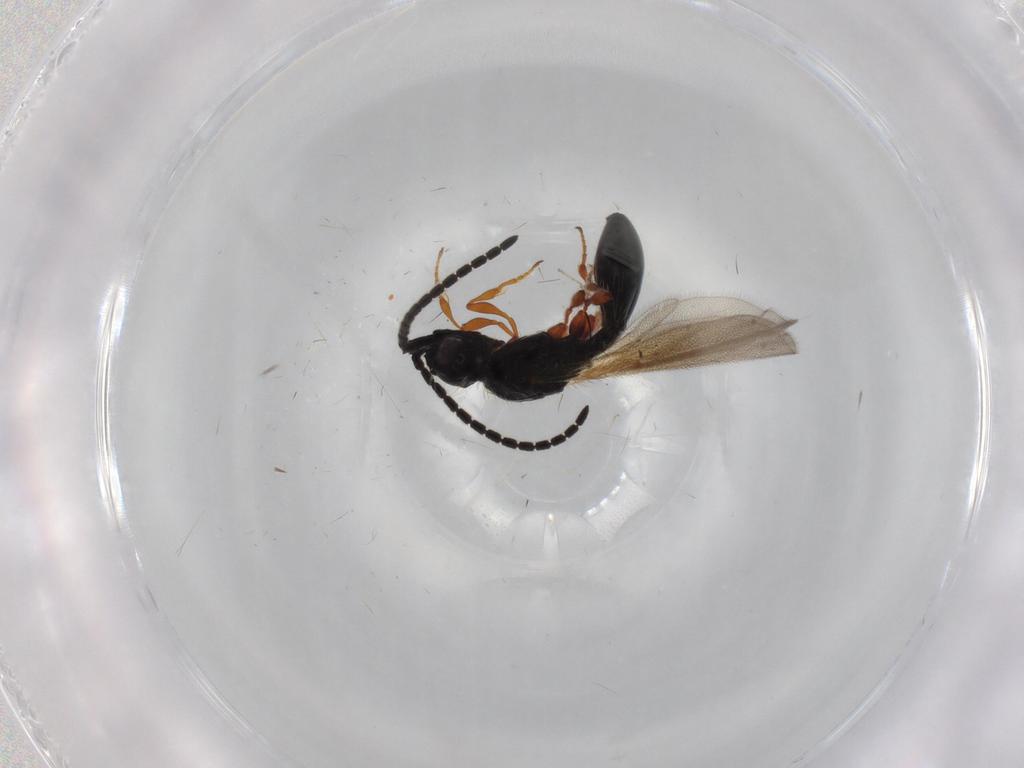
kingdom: Animalia
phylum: Arthropoda
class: Insecta
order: Hymenoptera
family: Diapriidae
